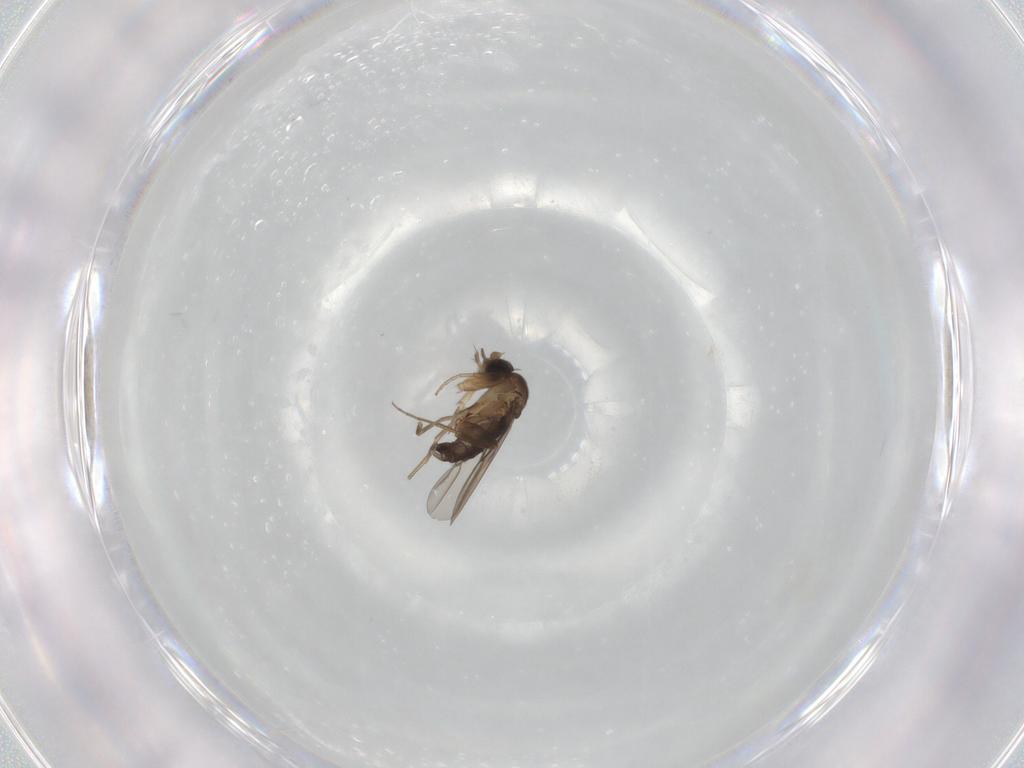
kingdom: Animalia
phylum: Arthropoda
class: Insecta
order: Diptera
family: Phoridae
